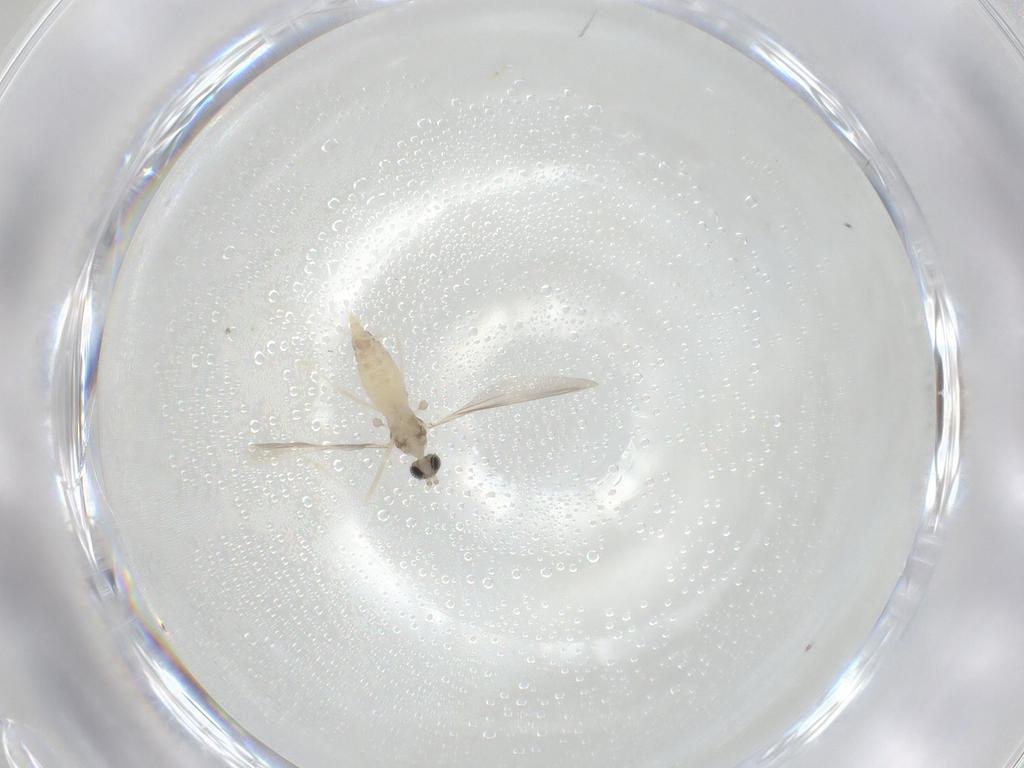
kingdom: Animalia
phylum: Arthropoda
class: Insecta
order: Diptera
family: Cecidomyiidae
